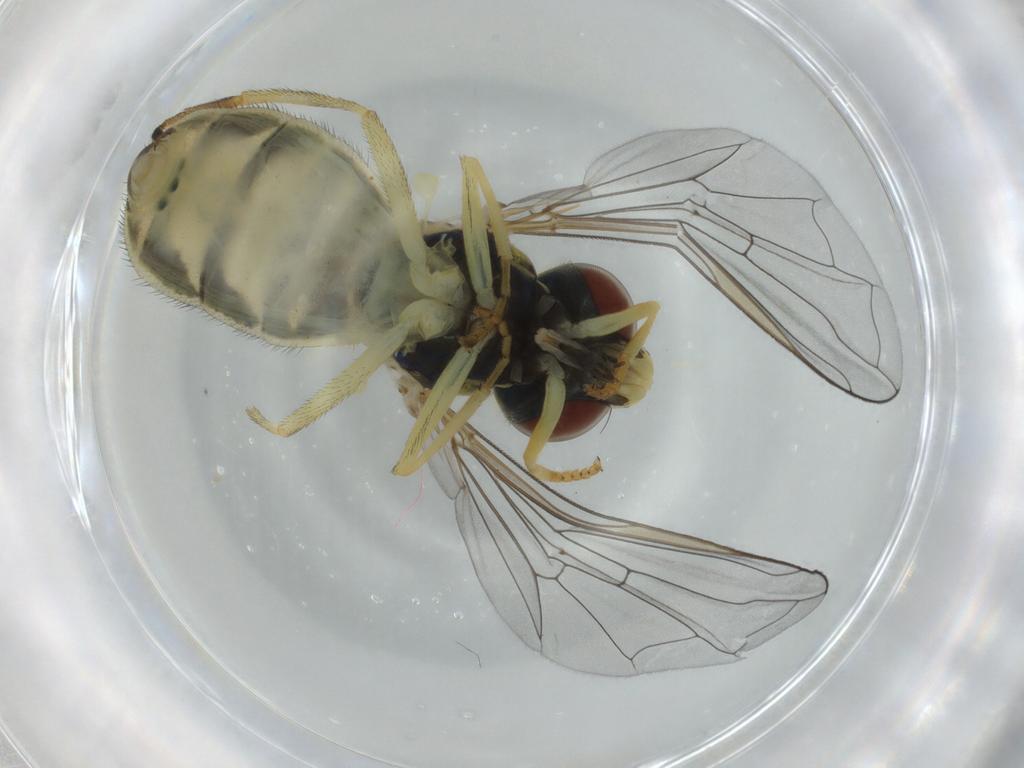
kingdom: Animalia
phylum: Arthropoda
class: Insecta
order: Diptera
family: Syrphidae
